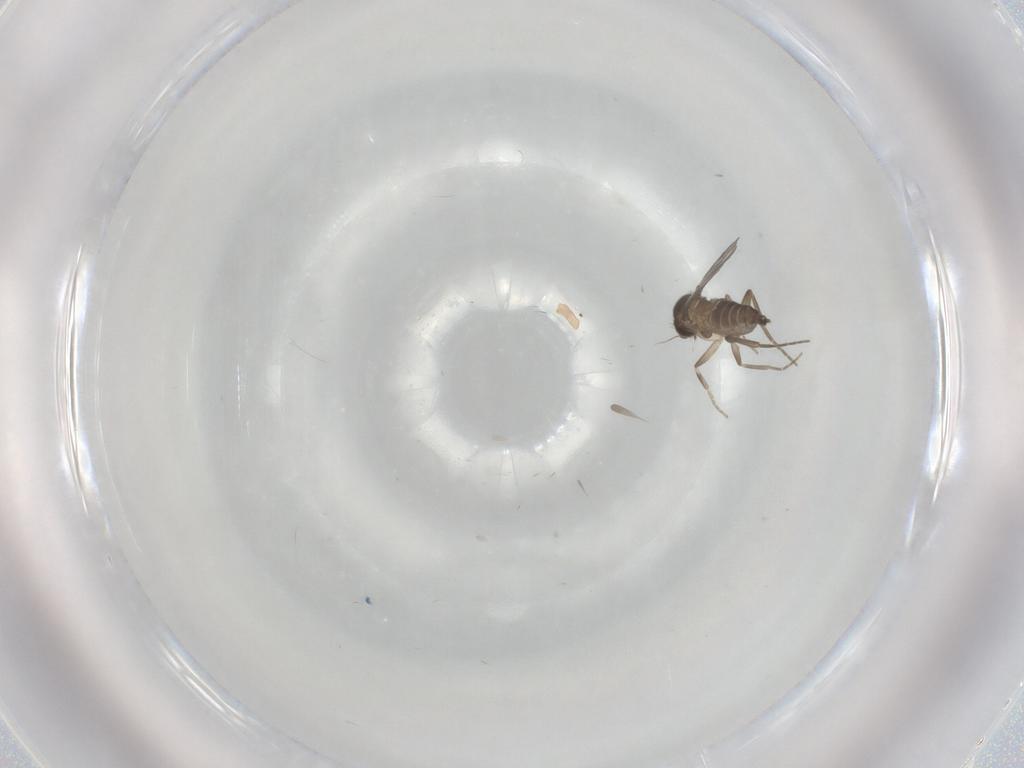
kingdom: Animalia
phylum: Arthropoda
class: Insecta
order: Diptera
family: Phoridae
